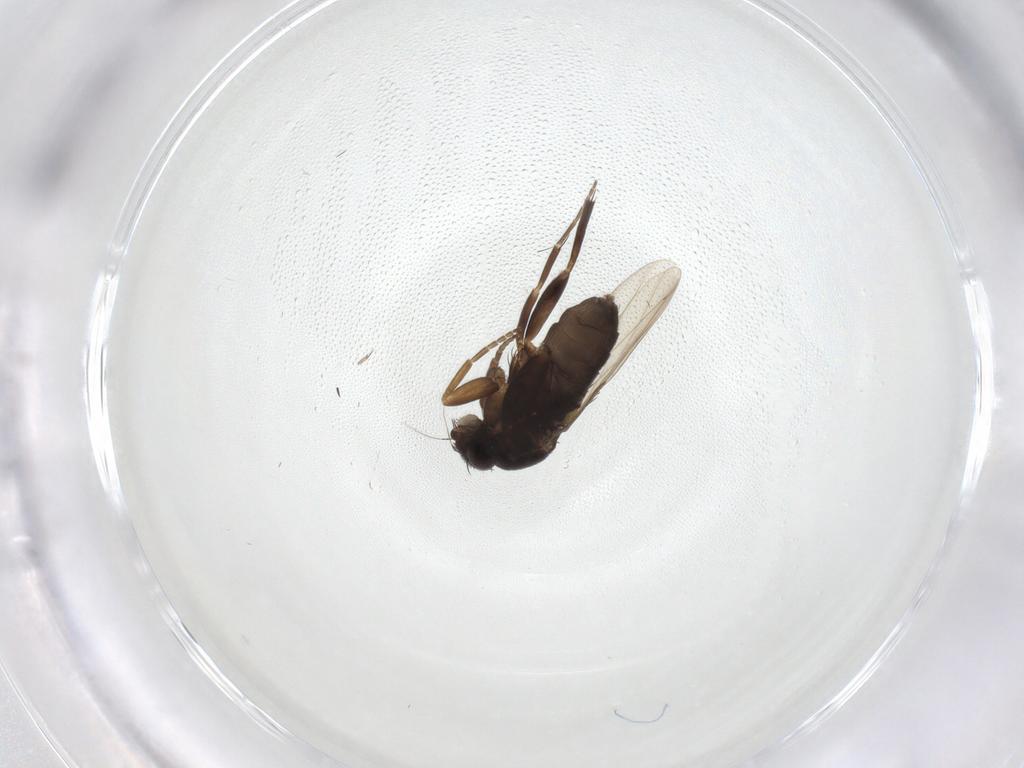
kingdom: Animalia
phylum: Arthropoda
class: Insecta
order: Diptera
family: Phoridae
